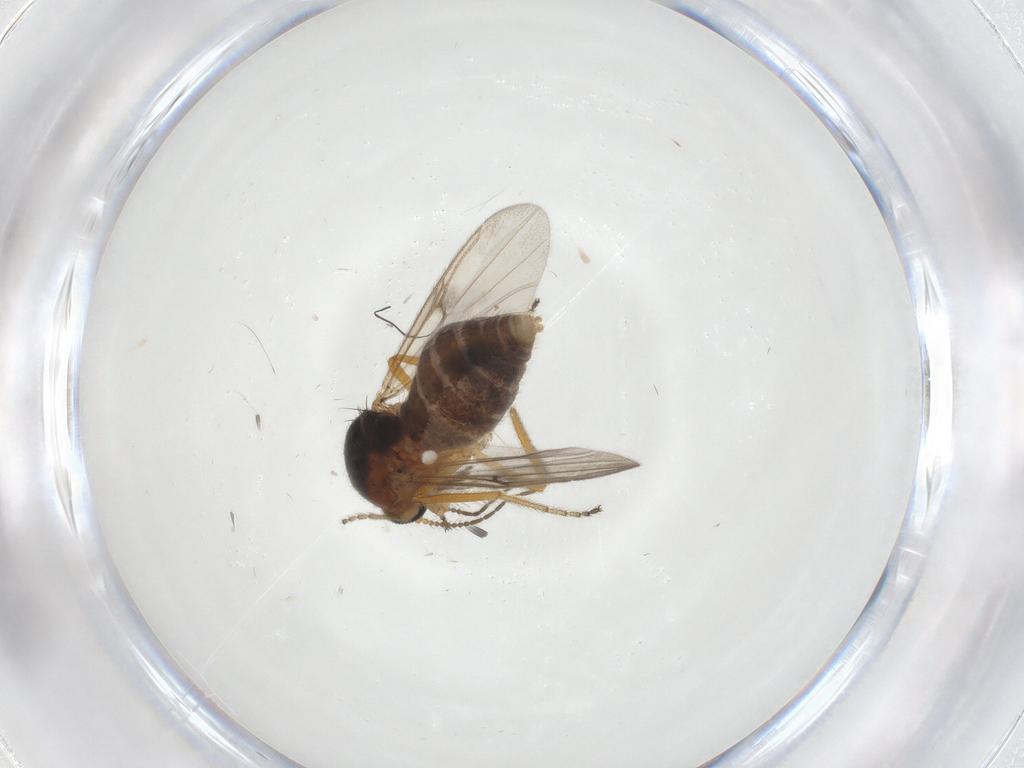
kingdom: Animalia
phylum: Arthropoda
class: Insecta
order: Diptera
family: Ceratopogonidae
